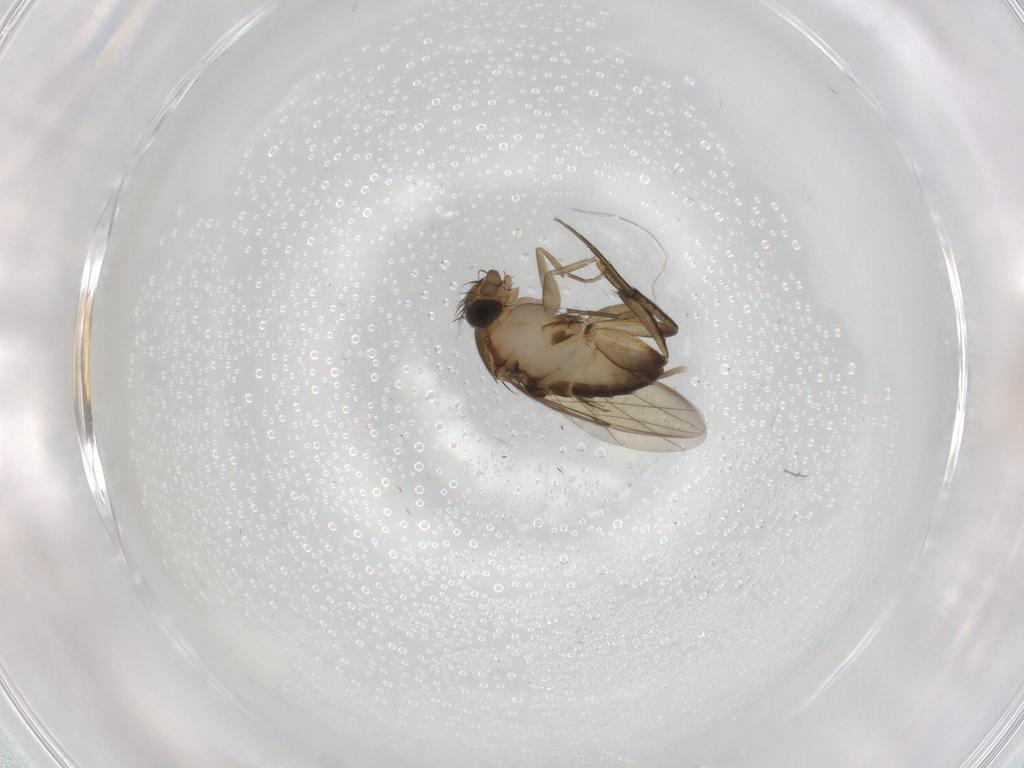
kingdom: Animalia
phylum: Arthropoda
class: Insecta
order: Diptera
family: Phoridae
